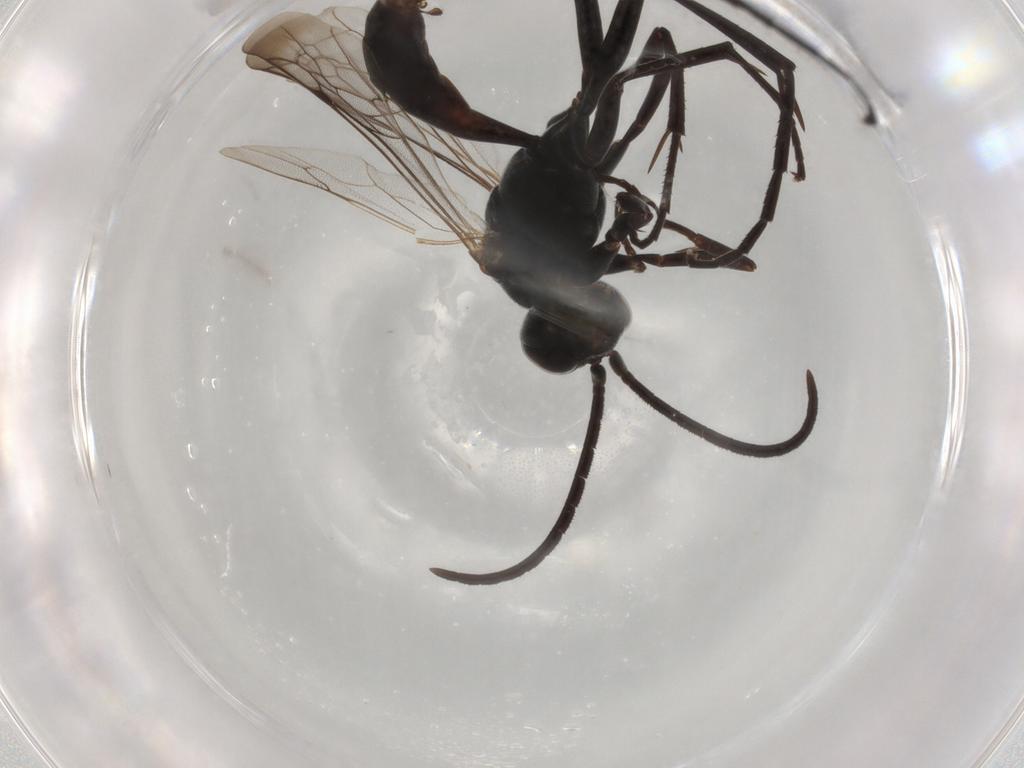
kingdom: Animalia
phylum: Arthropoda
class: Insecta
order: Hymenoptera
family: Pompilidae
